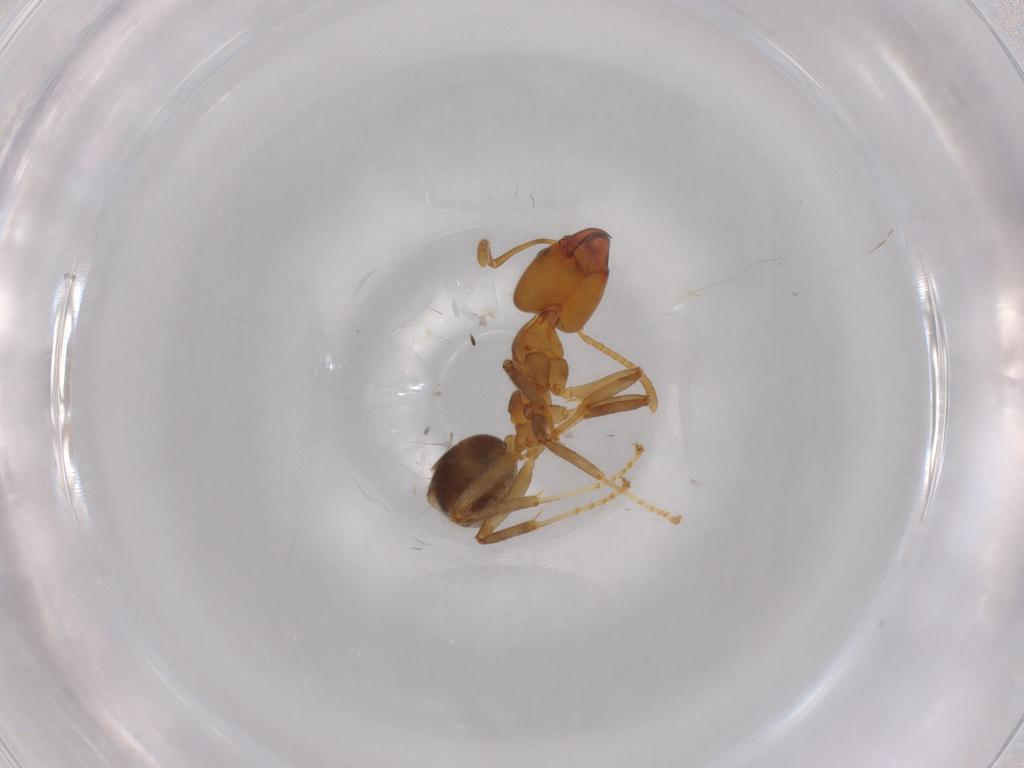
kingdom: Animalia
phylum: Arthropoda
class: Insecta
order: Hymenoptera
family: Formicidae
